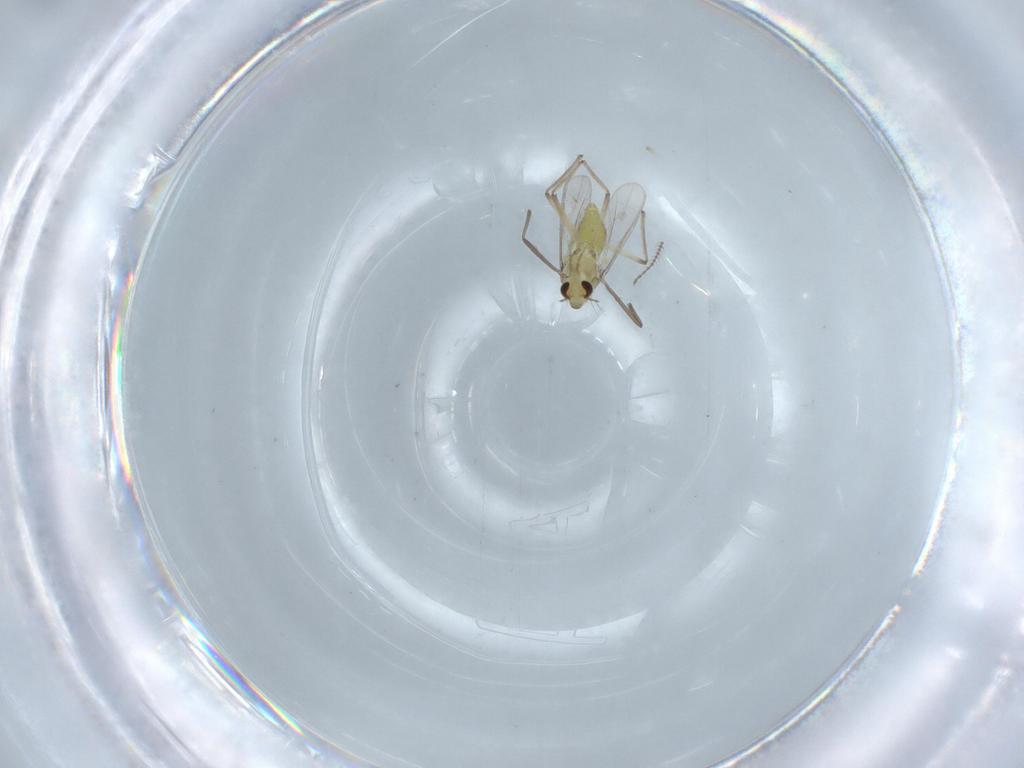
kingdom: Animalia
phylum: Arthropoda
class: Insecta
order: Diptera
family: Chironomidae
